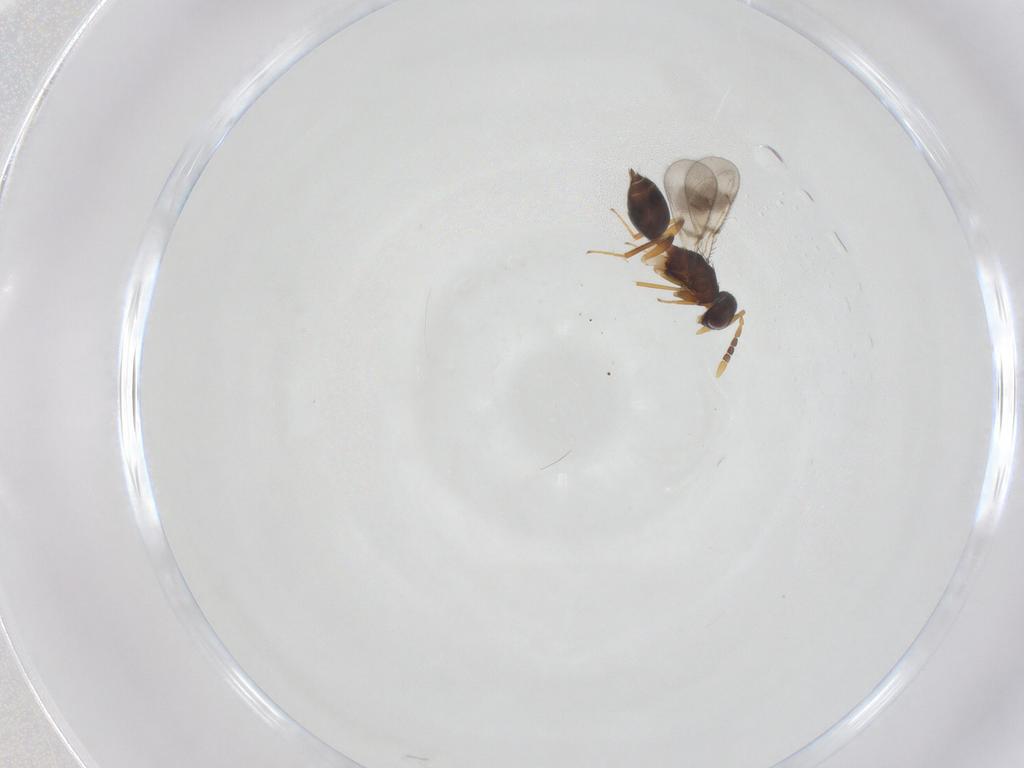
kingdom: Animalia
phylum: Arthropoda
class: Insecta
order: Hymenoptera
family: Eulophidae
